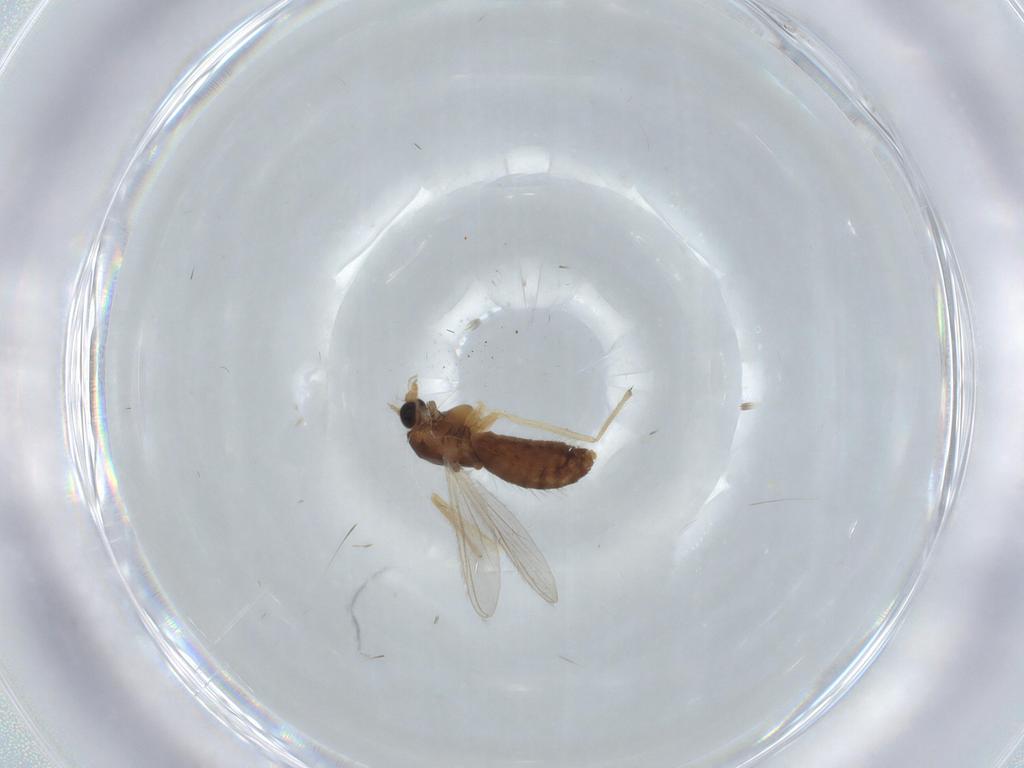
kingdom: Animalia
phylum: Arthropoda
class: Insecta
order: Diptera
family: Chironomidae
